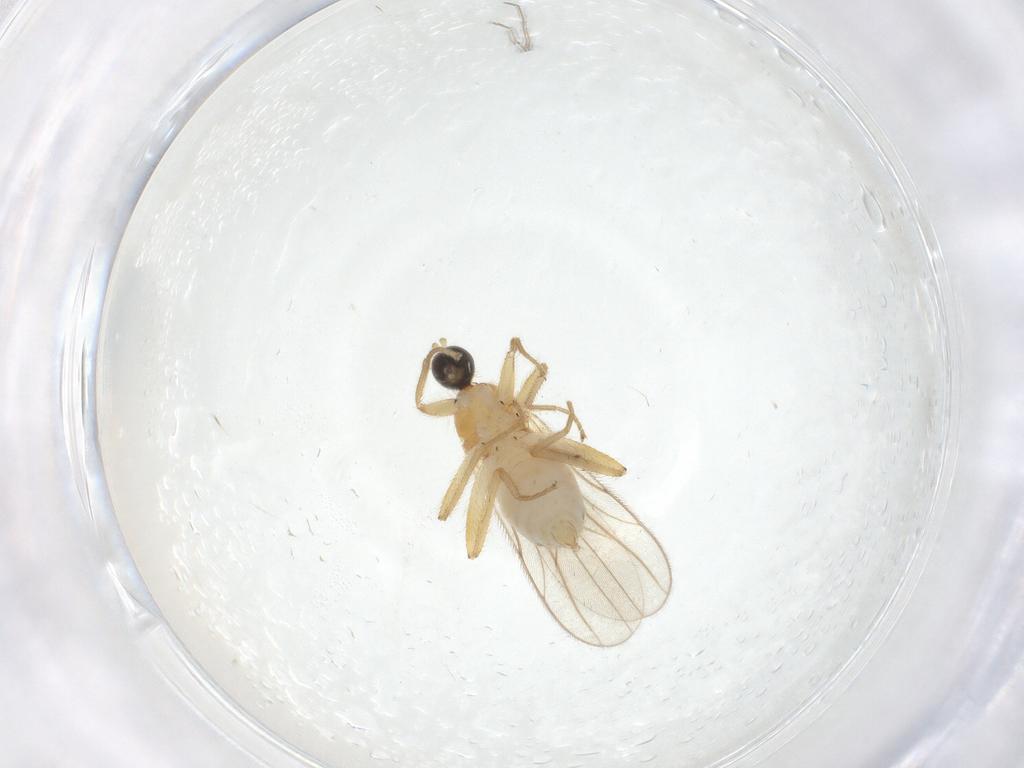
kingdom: Animalia
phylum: Arthropoda
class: Insecta
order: Diptera
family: Hybotidae
